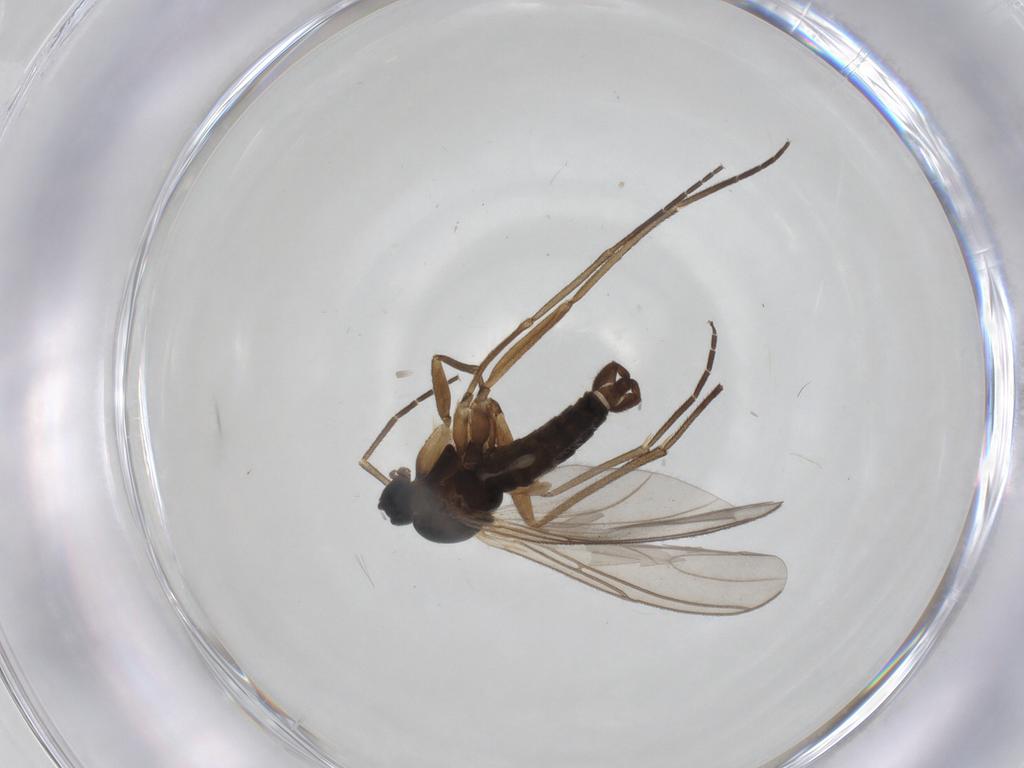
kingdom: Animalia
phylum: Arthropoda
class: Insecta
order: Diptera
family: Sciaridae
